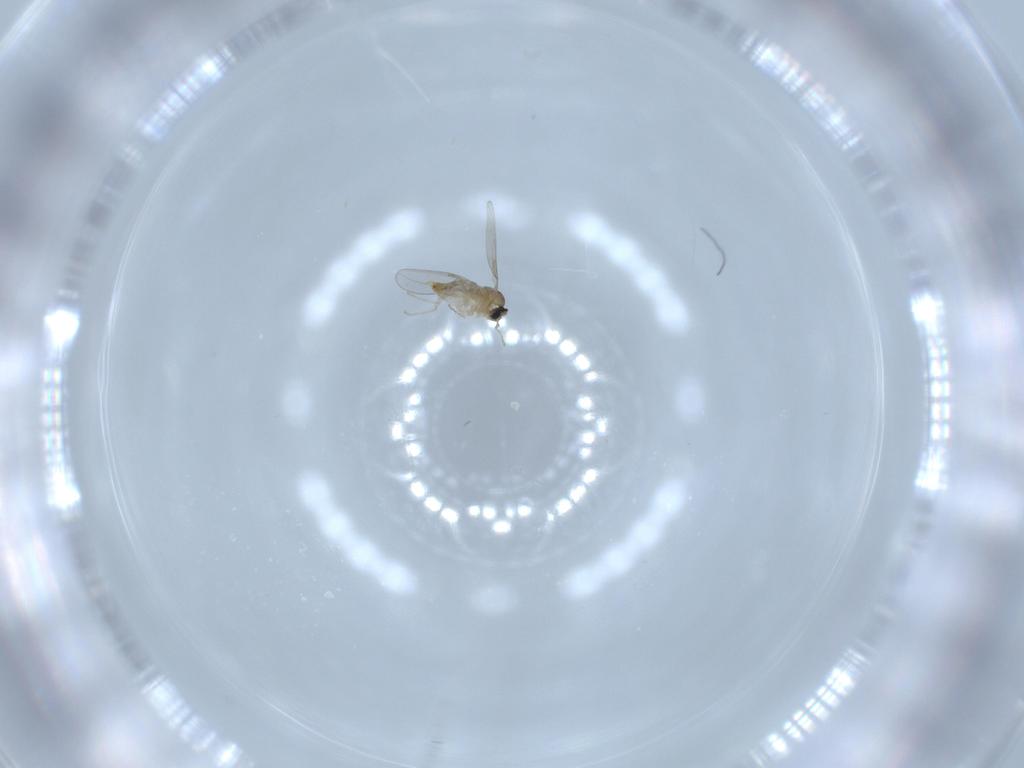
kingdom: Animalia
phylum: Arthropoda
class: Insecta
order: Diptera
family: Cecidomyiidae
